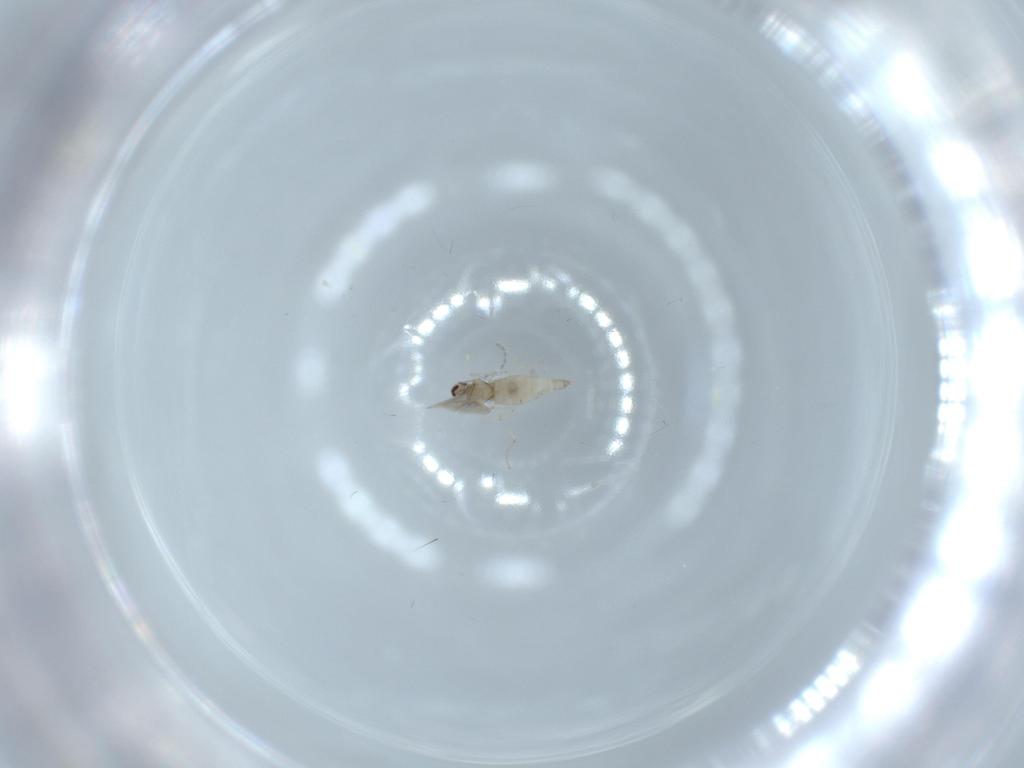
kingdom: Animalia
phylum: Arthropoda
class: Insecta
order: Diptera
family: Cecidomyiidae
